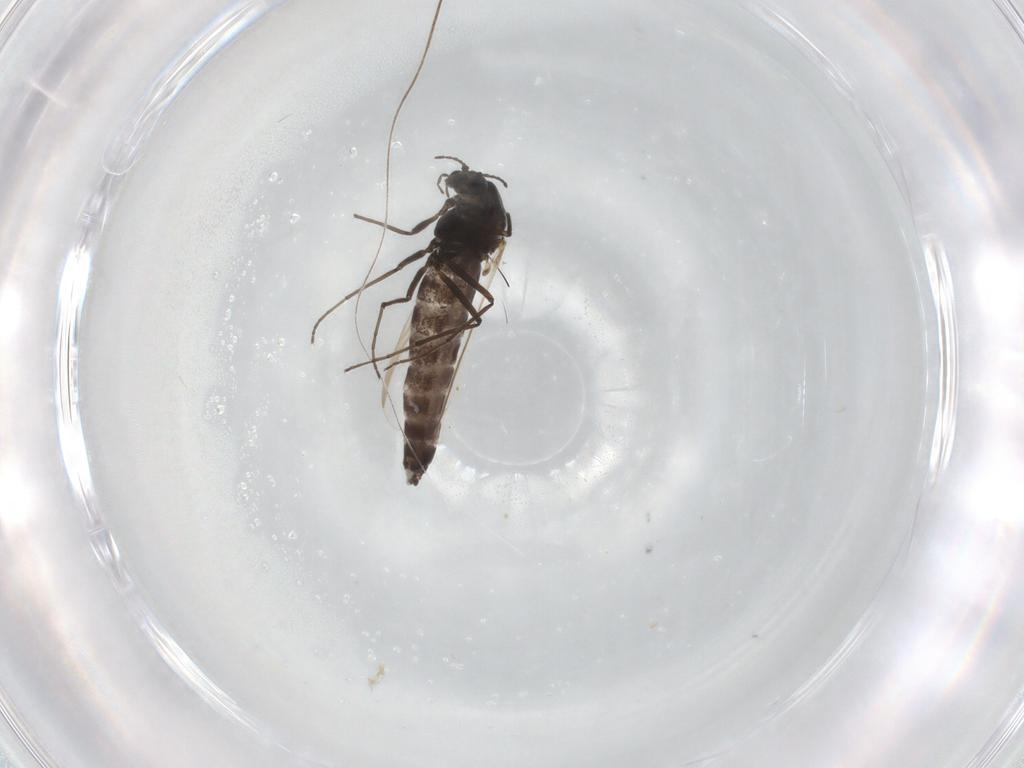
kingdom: Animalia
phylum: Arthropoda
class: Insecta
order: Diptera
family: Chironomidae
